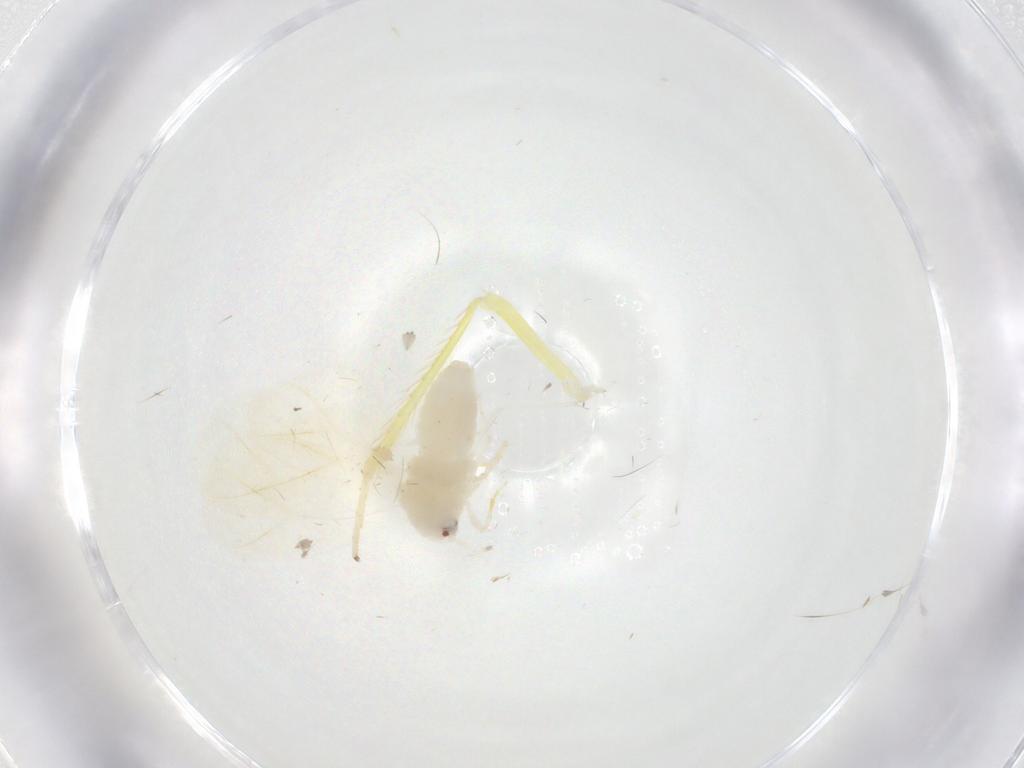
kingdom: Animalia
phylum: Arthropoda
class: Insecta
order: Hemiptera
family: Aleyrodidae
